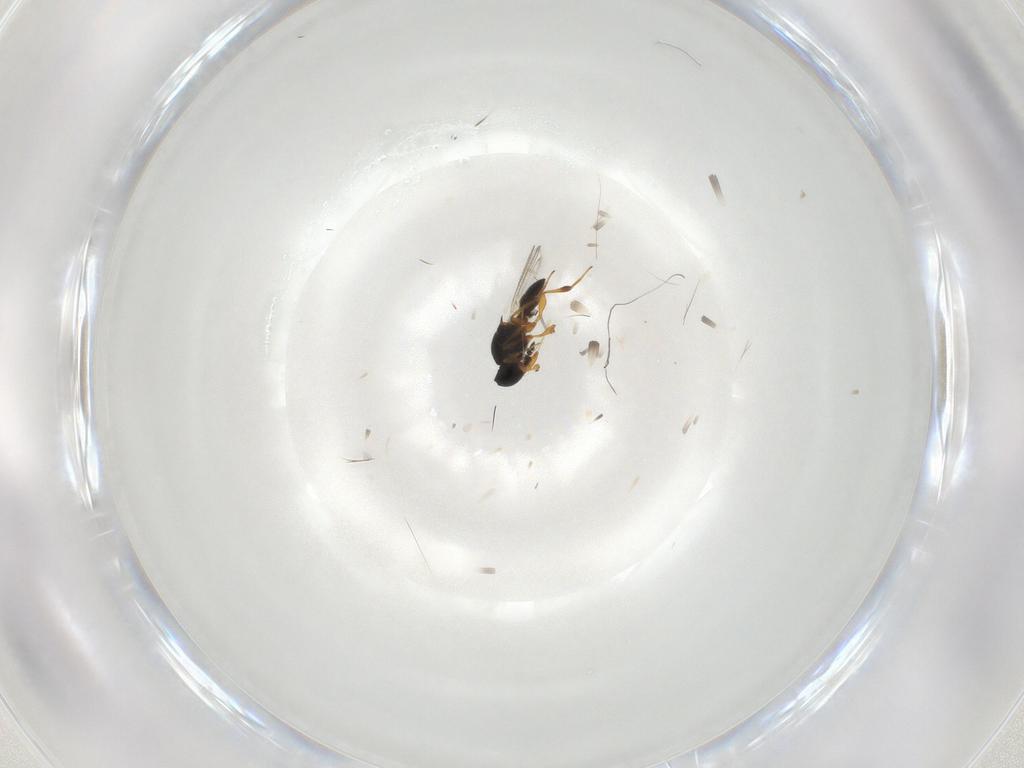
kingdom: Animalia
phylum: Arthropoda
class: Insecta
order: Hymenoptera
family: Platygastridae
